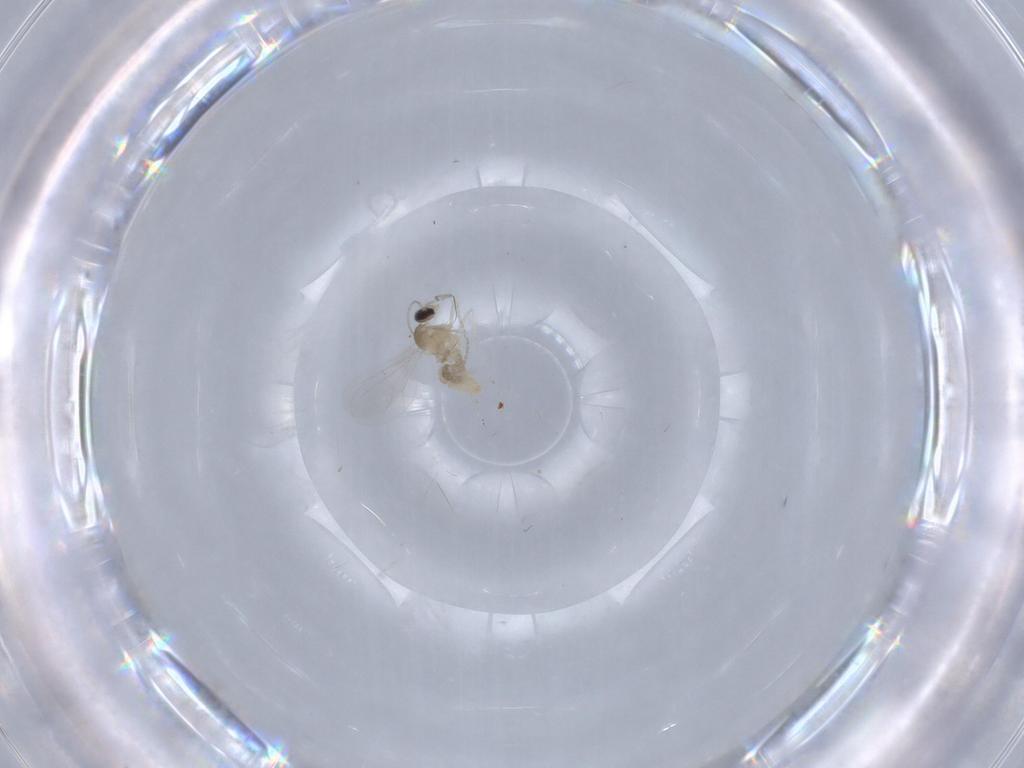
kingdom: Animalia
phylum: Arthropoda
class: Insecta
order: Diptera
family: Cecidomyiidae
